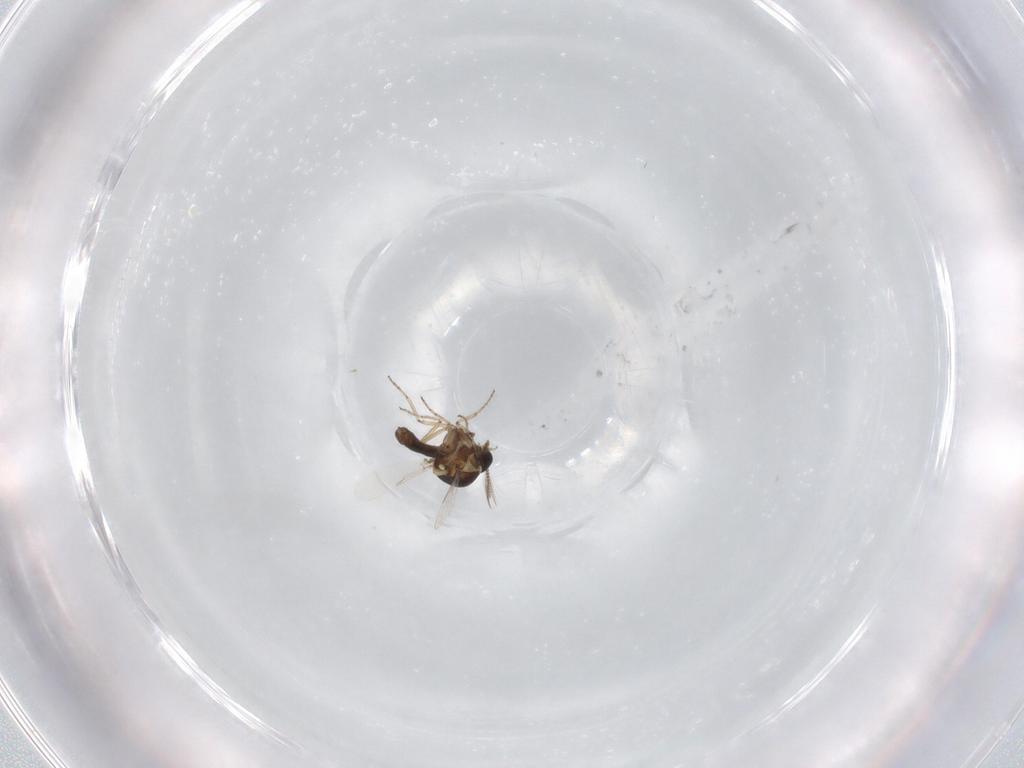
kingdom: Animalia
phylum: Arthropoda
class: Insecta
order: Diptera
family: Ceratopogonidae
